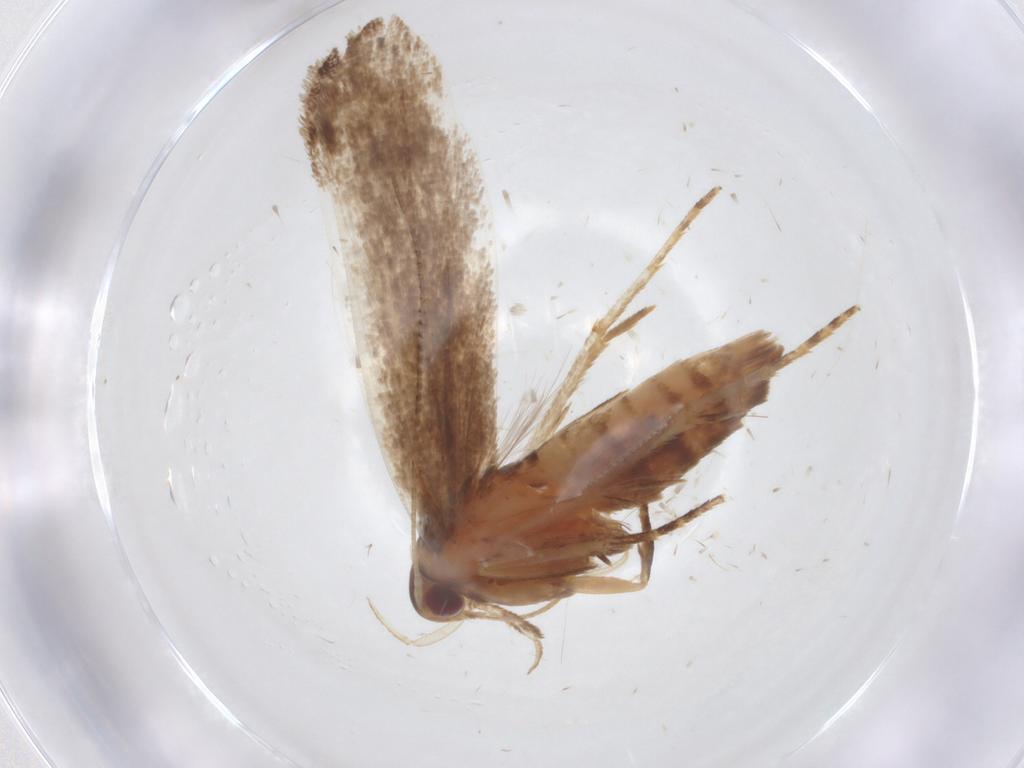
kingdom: Animalia
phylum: Arthropoda
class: Insecta
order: Lepidoptera
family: Gelechiidae
